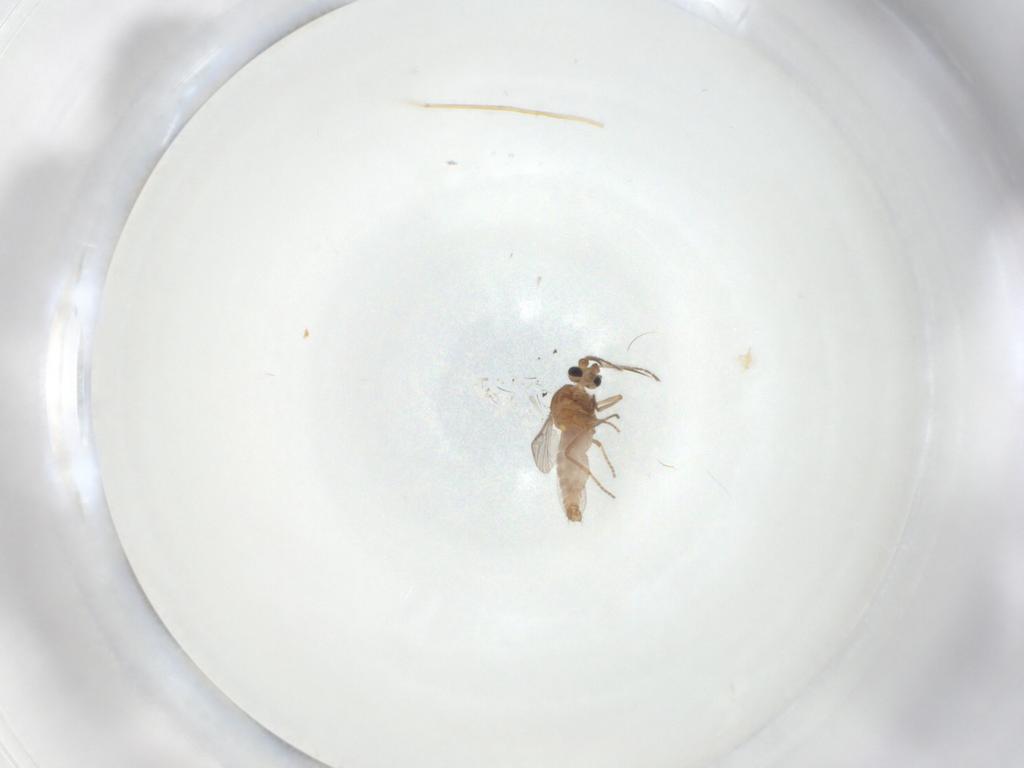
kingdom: Animalia
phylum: Arthropoda
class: Insecta
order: Diptera
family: Ceratopogonidae
